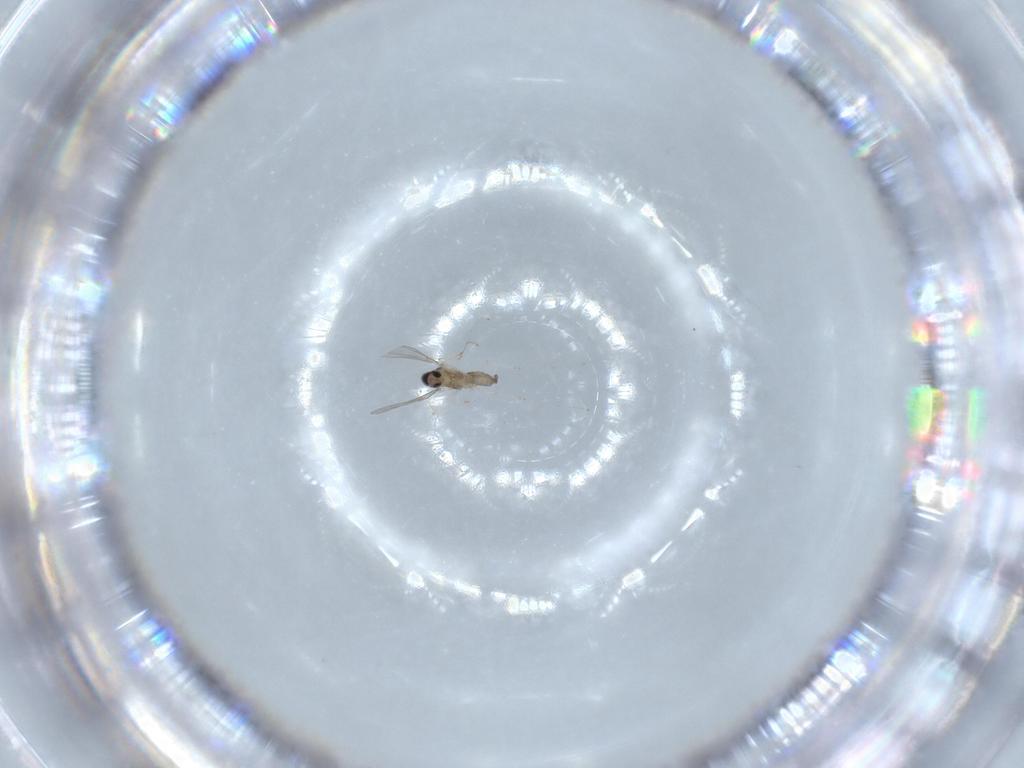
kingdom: Animalia
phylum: Arthropoda
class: Insecta
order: Diptera
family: Cecidomyiidae
